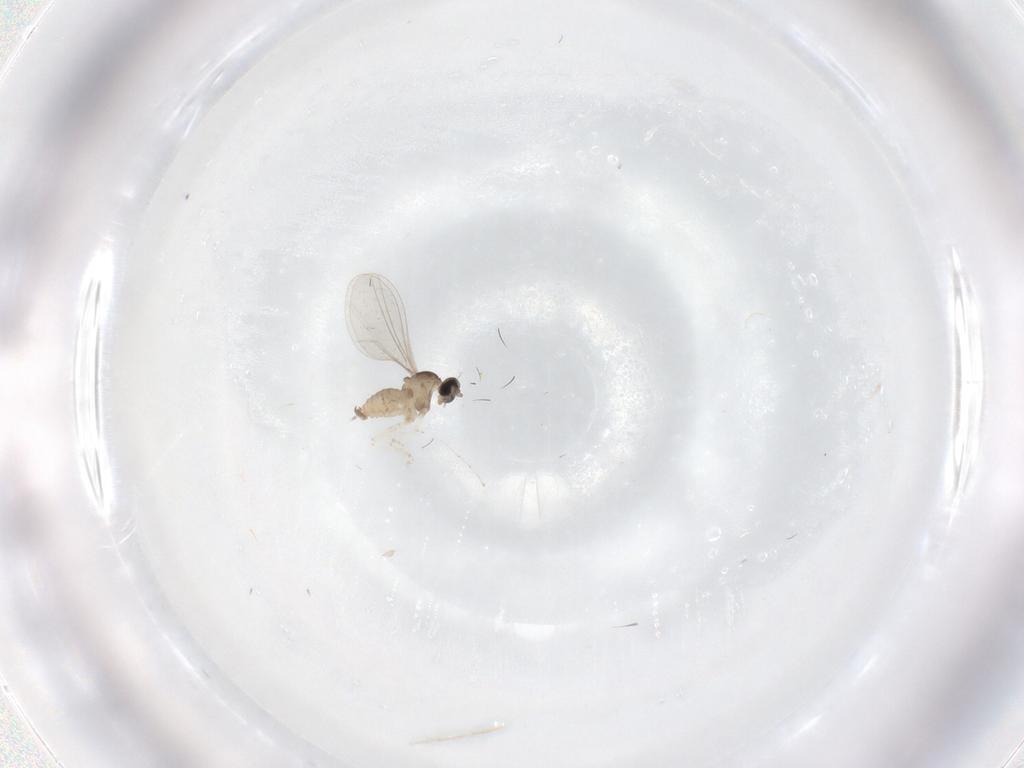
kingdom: Animalia
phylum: Arthropoda
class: Insecta
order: Diptera
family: Cecidomyiidae
